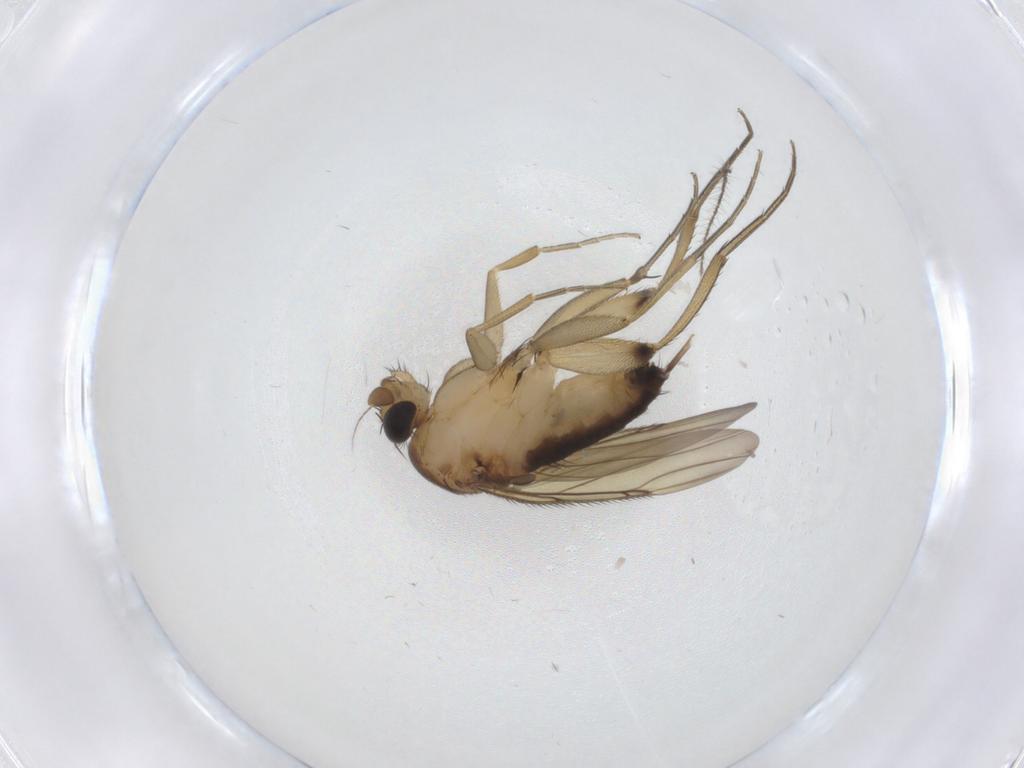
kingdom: Animalia
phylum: Arthropoda
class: Insecta
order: Diptera
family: Phoridae
